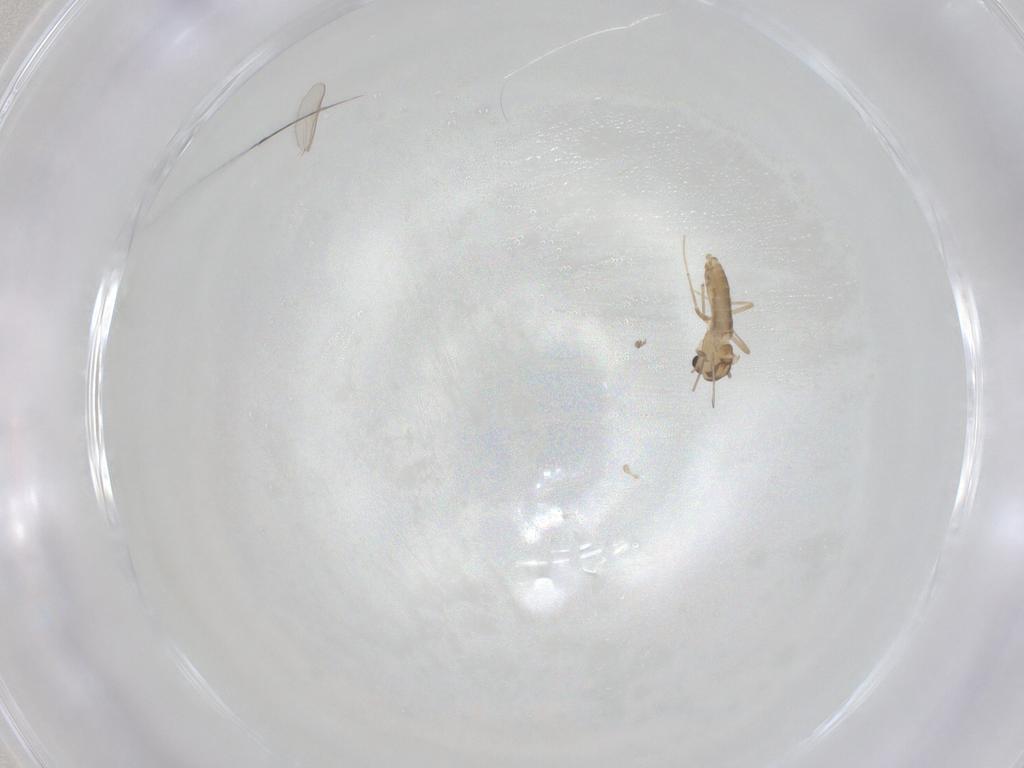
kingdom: Animalia
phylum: Arthropoda
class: Insecta
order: Diptera
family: Chironomidae
